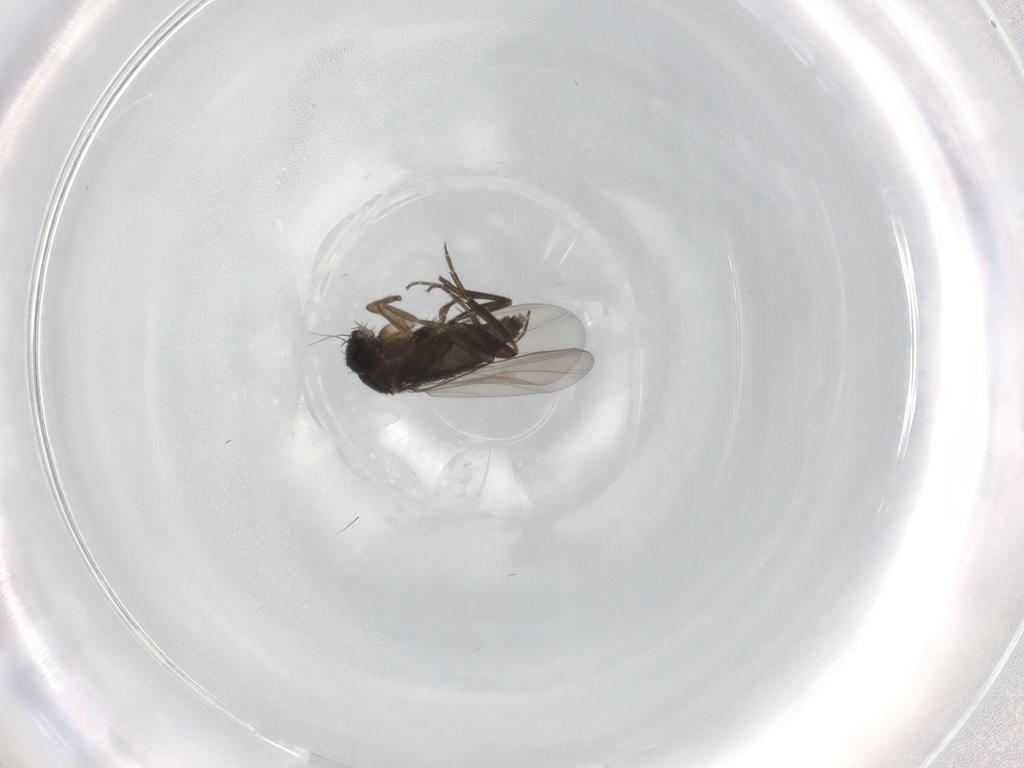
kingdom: Animalia
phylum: Arthropoda
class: Insecta
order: Diptera
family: Phoridae
